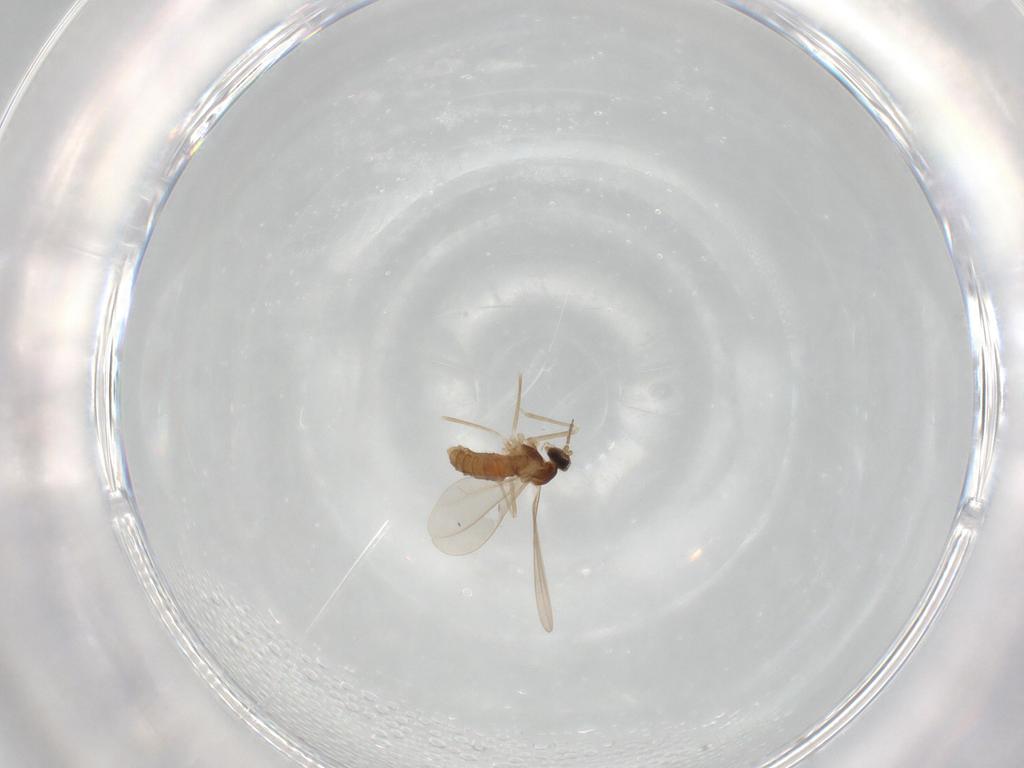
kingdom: Animalia
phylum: Arthropoda
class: Insecta
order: Diptera
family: Cecidomyiidae
